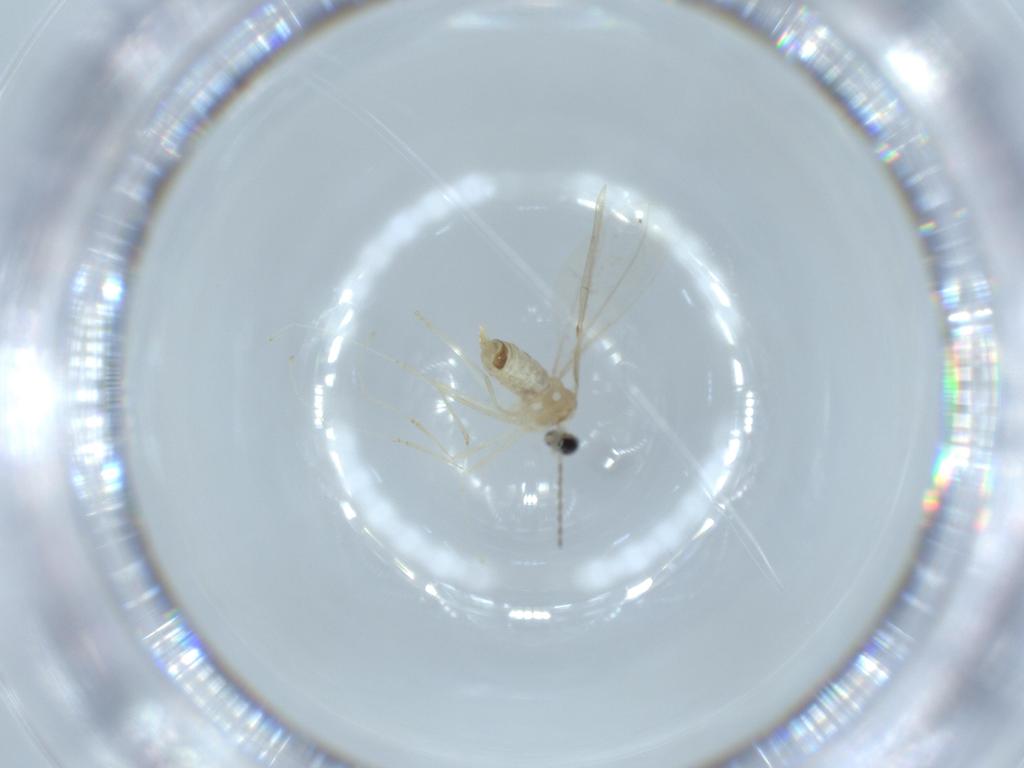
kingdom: Animalia
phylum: Arthropoda
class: Insecta
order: Diptera
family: Cecidomyiidae
